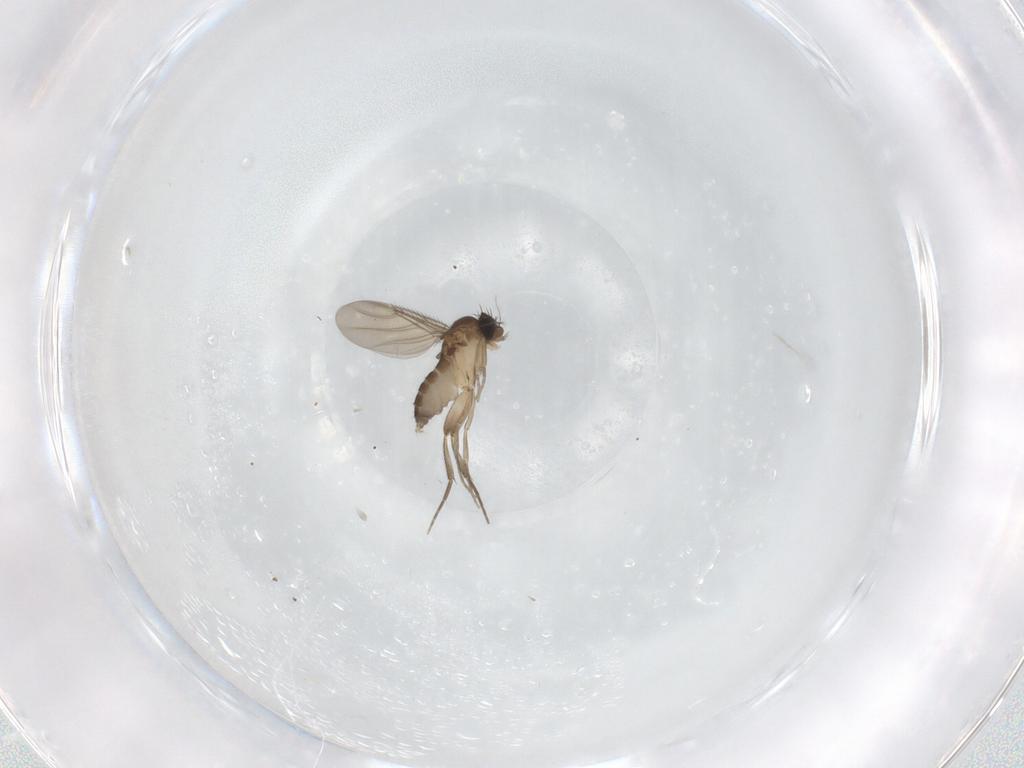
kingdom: Animalia
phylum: Arthropoda
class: Insecta
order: Diptera
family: Phoridae
